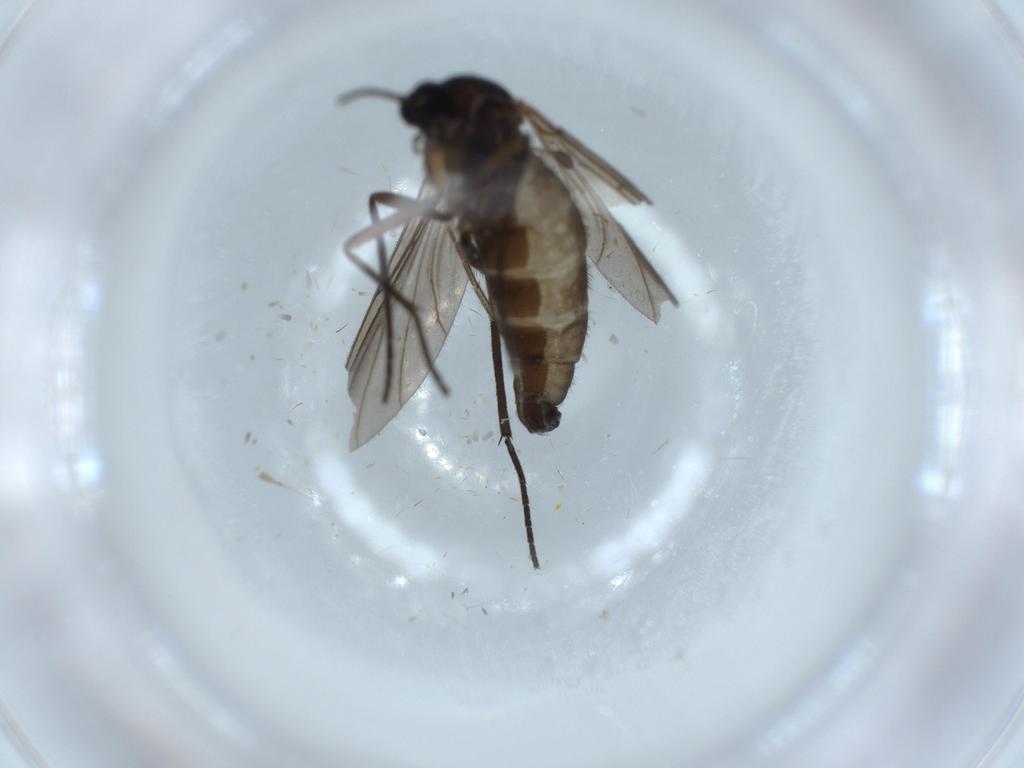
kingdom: Animalia
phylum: Arthropoda
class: Insecta
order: Diptera
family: Sciaridae
